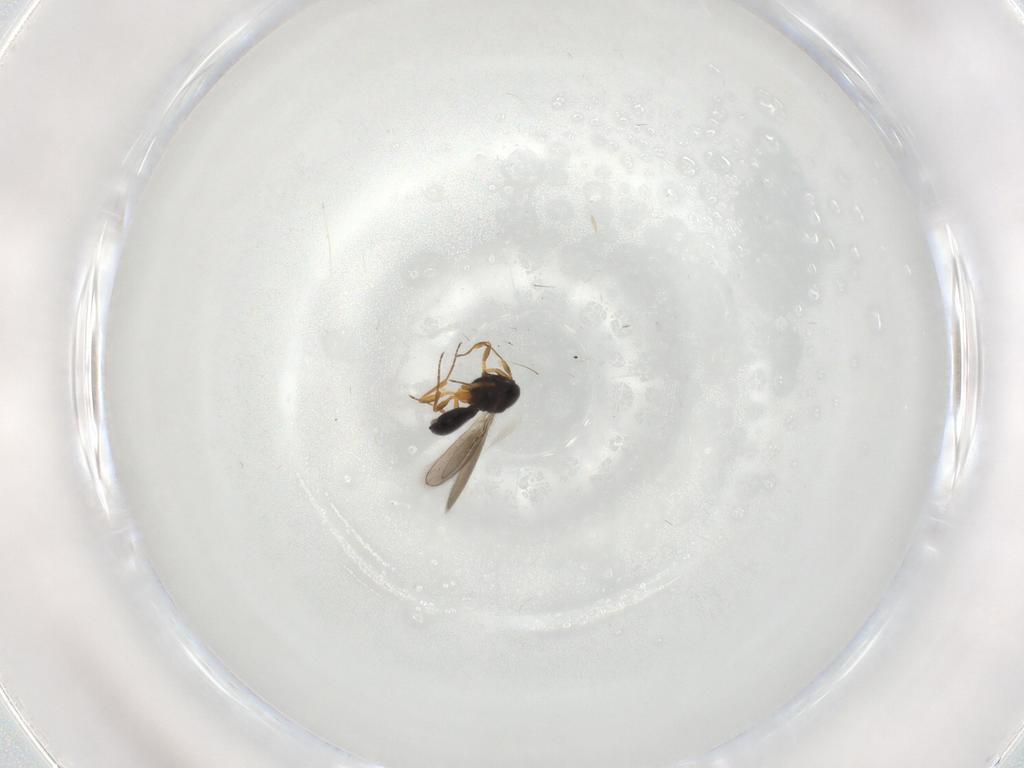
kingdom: Animalia
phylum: Arthropoda
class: Insecta
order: Hymenoptera
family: Scelionidae
